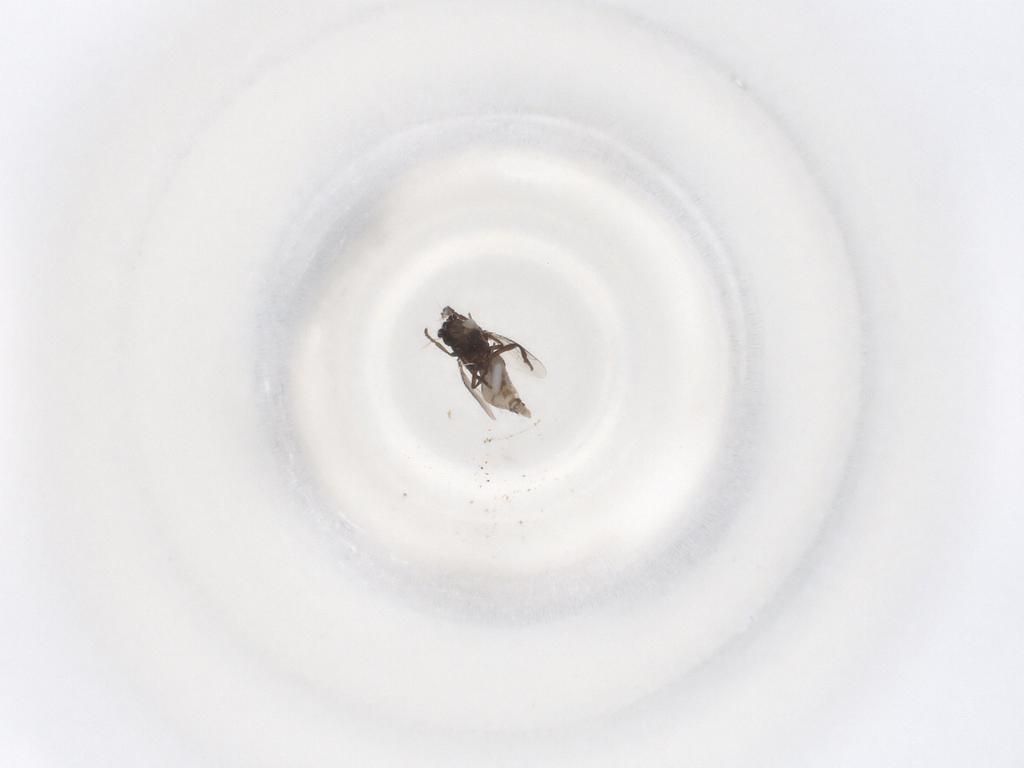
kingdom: Animalia
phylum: Arthropoda
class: Insecta
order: Diptera
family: Sphaeroceridae
